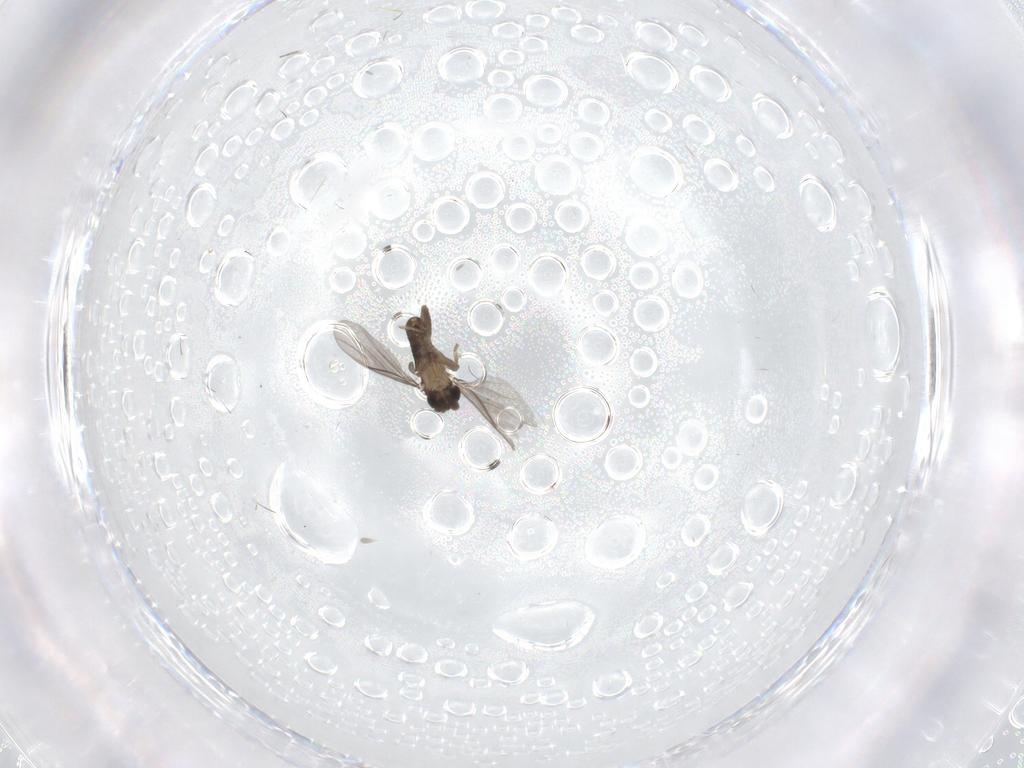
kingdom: Animalia
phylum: Arthropoda
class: Insecta
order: Diptera
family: Phoridae
